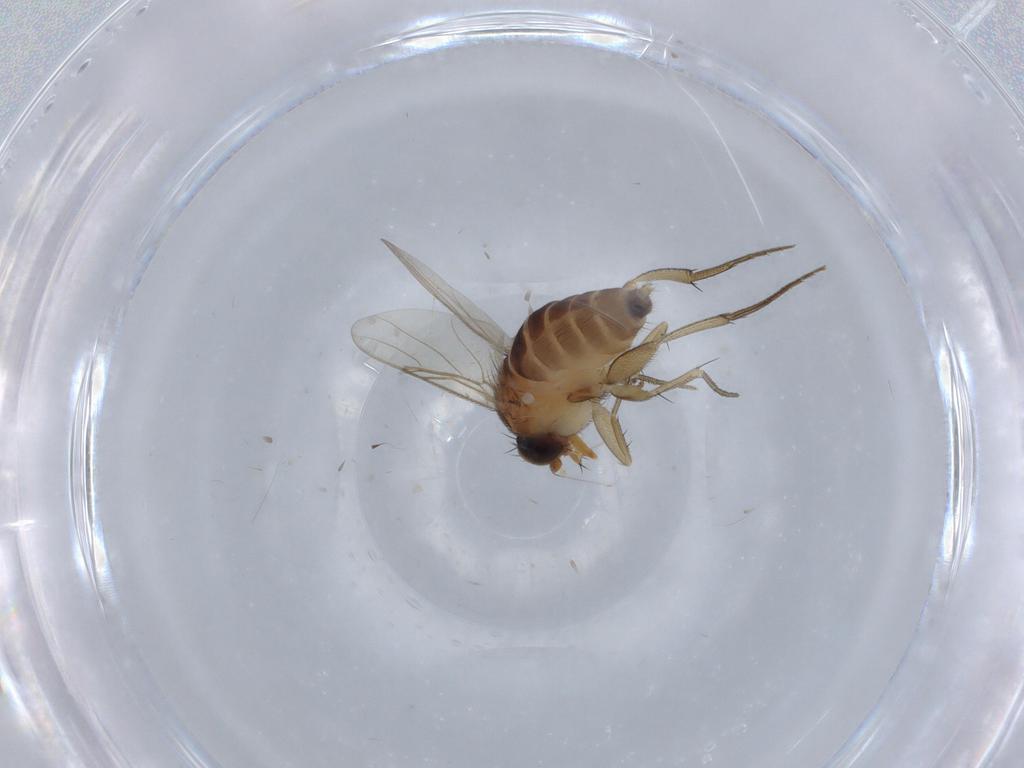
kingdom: Animalia
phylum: Arthropoda
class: Insecta
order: Diptera
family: Phoridae
